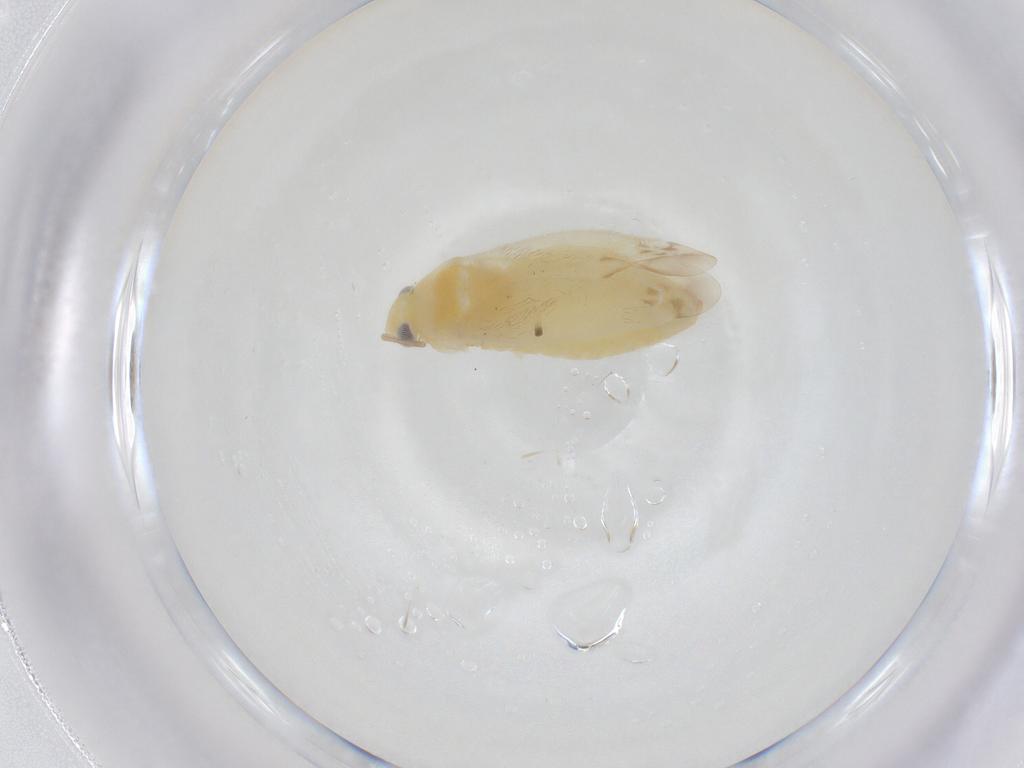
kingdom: Animalia
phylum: Arthropoda
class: Insecta
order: Hemiptera
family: Miridae
